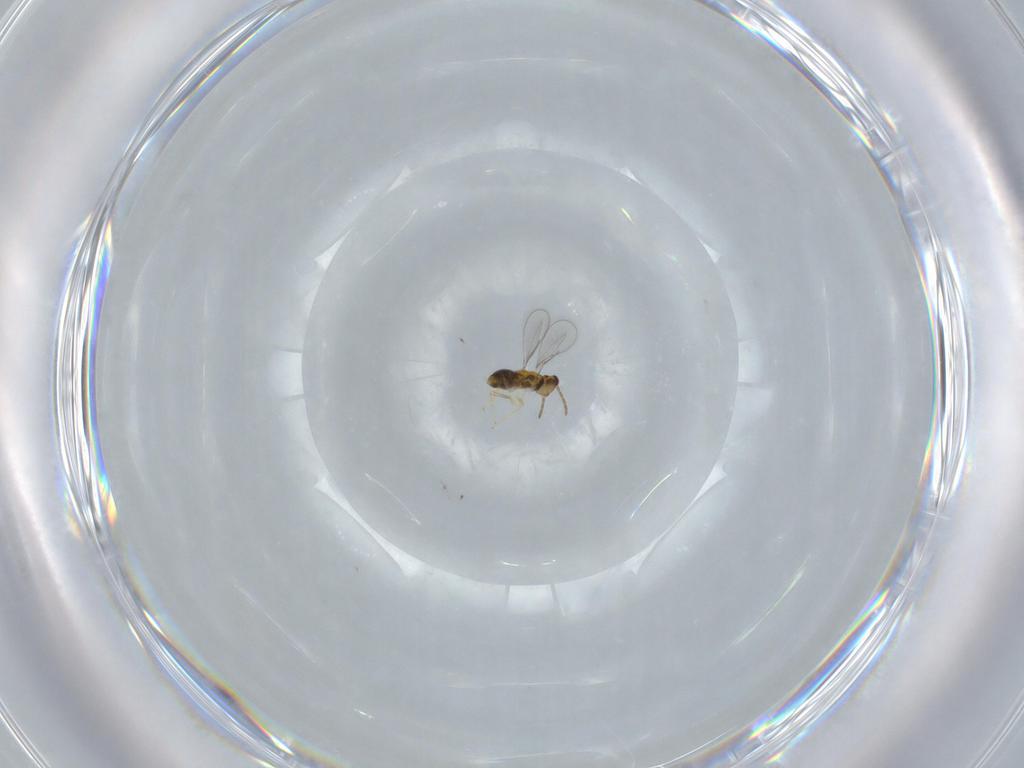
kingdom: Animalia
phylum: Arthropoda
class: Insecta
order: Hymenoptera
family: Aphelinidae
